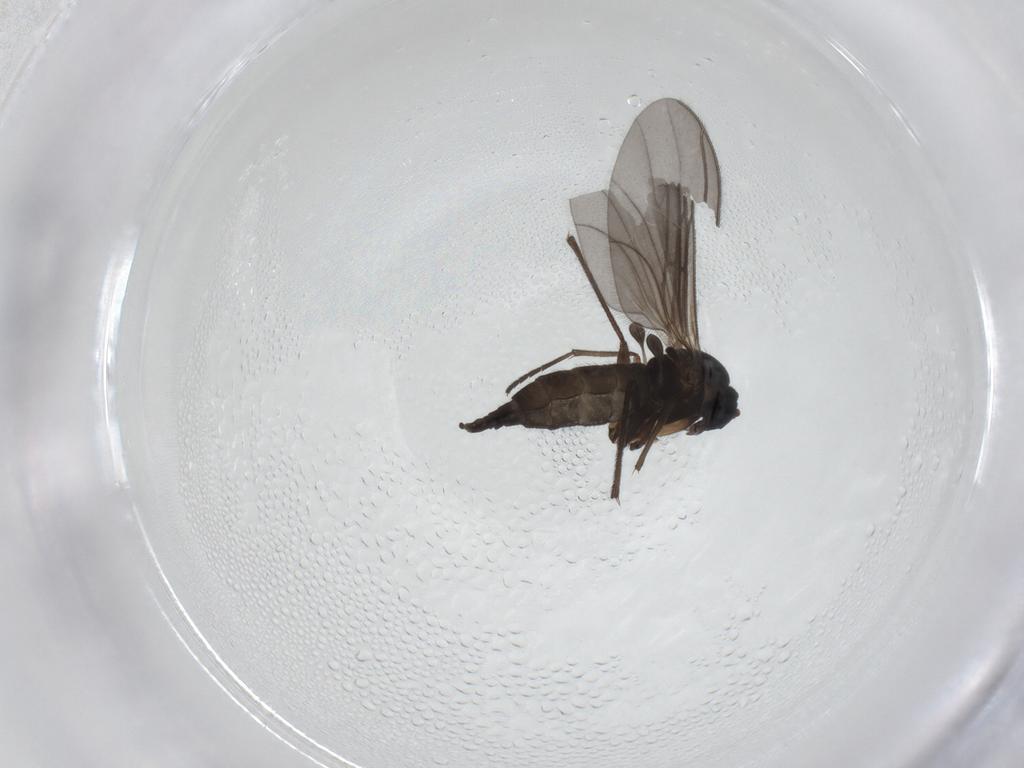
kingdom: Animalia
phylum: Arthropoda
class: Insecta
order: Diptera
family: Sciaridae
